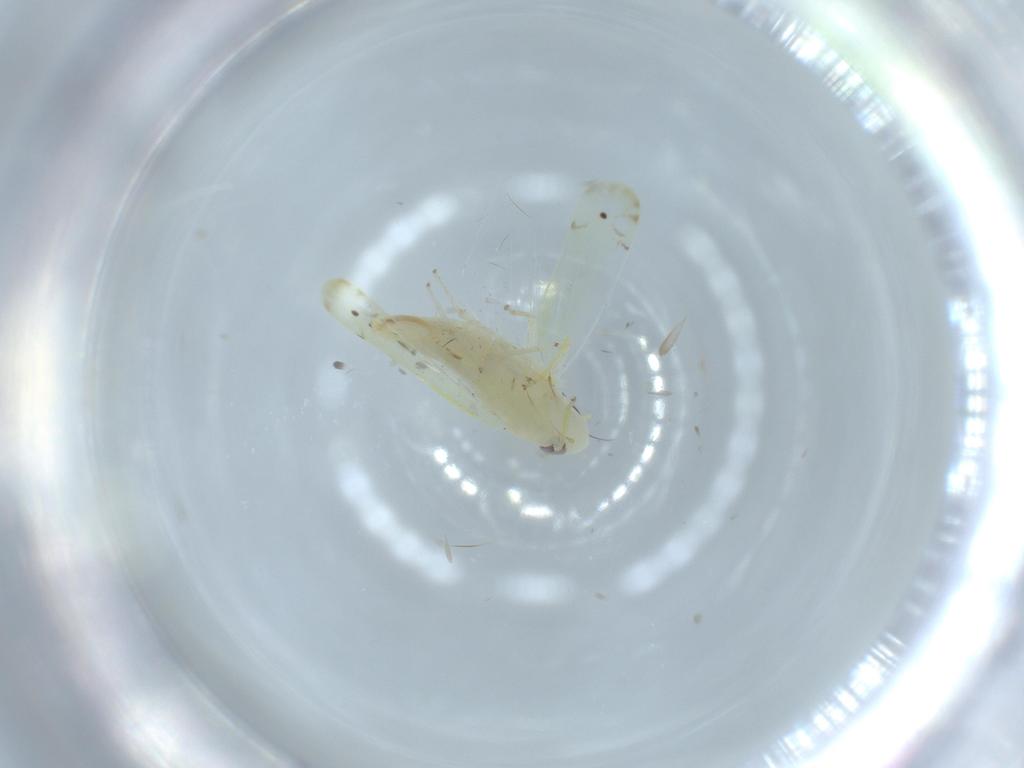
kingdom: Animalia
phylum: Arthropoda
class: Insecta
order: Hemiptera
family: Cicadellidae
